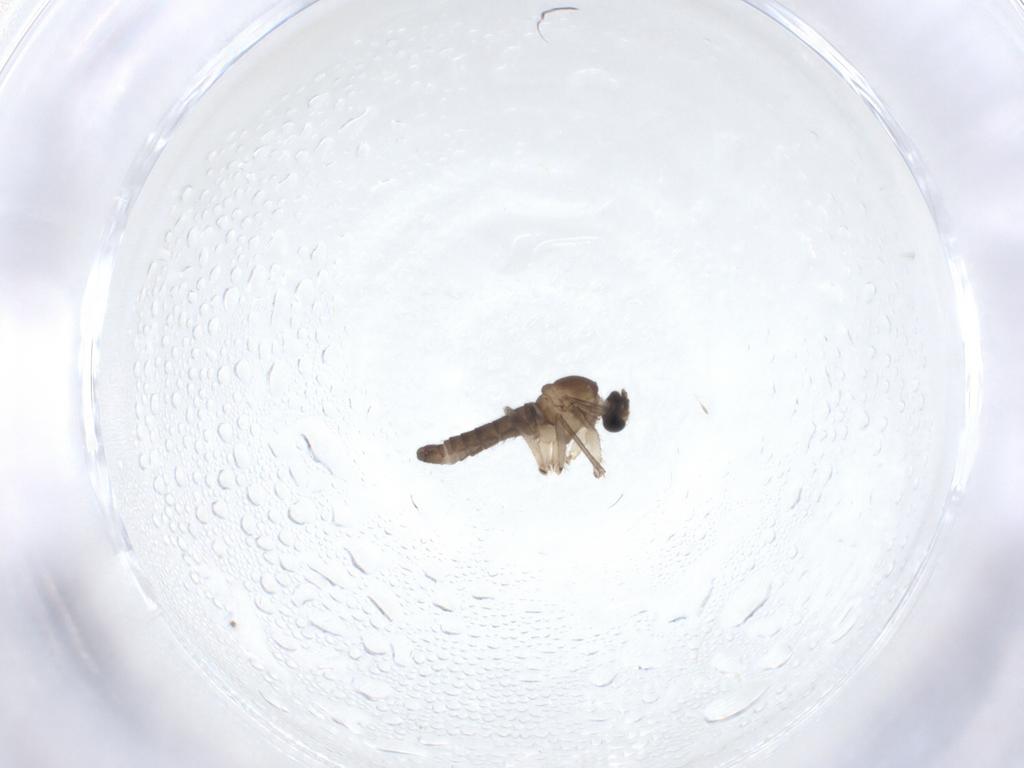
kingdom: Animalia
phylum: Arthropoda
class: Insecta
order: Diptera
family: Sciaridae
